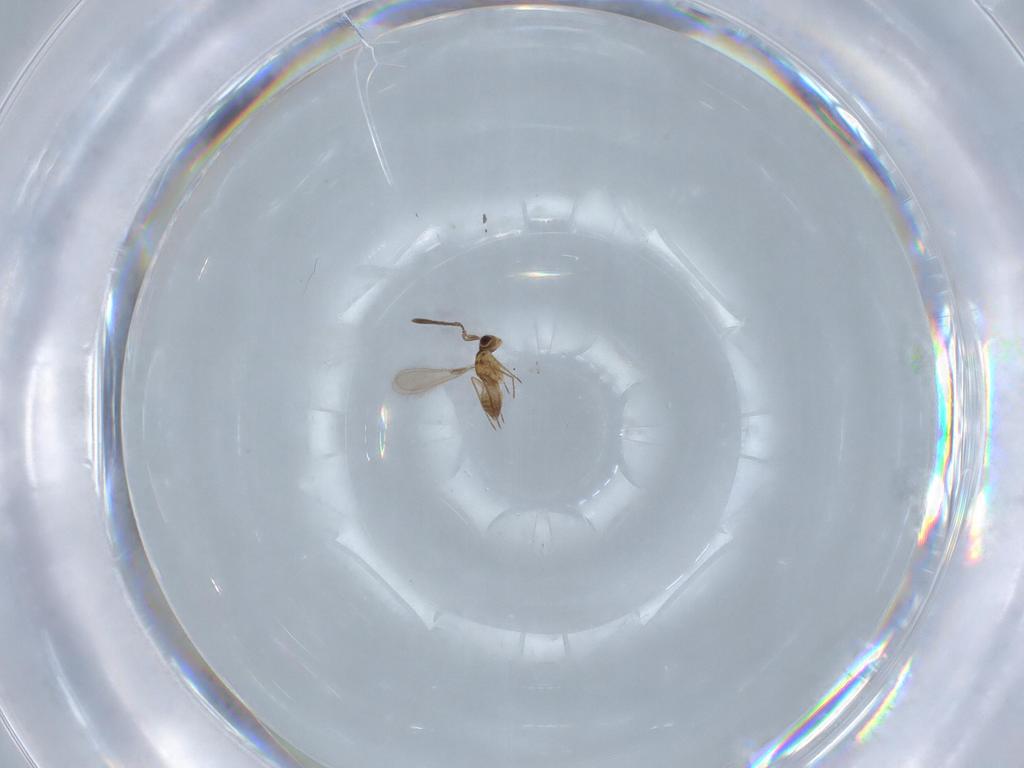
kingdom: Animalia
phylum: Arthropoda
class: Insecta
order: Hymenoptera
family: Mymaridae
